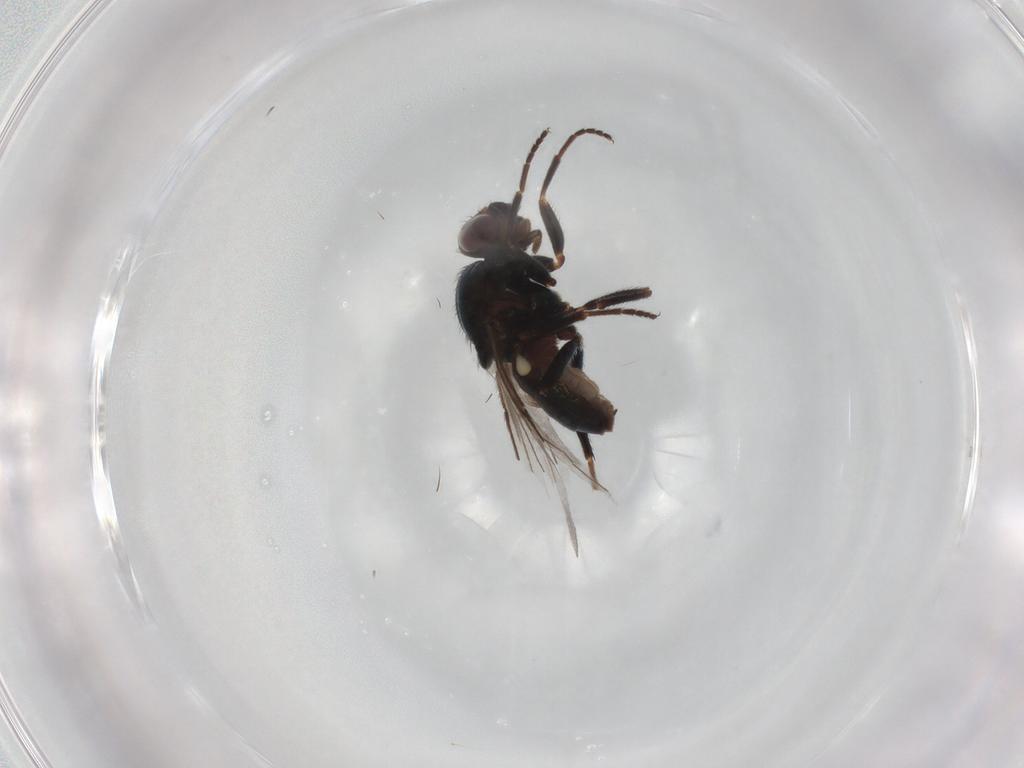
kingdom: Animalia
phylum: Arthropoda
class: Insecta
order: Diptera
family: Chloropidae
